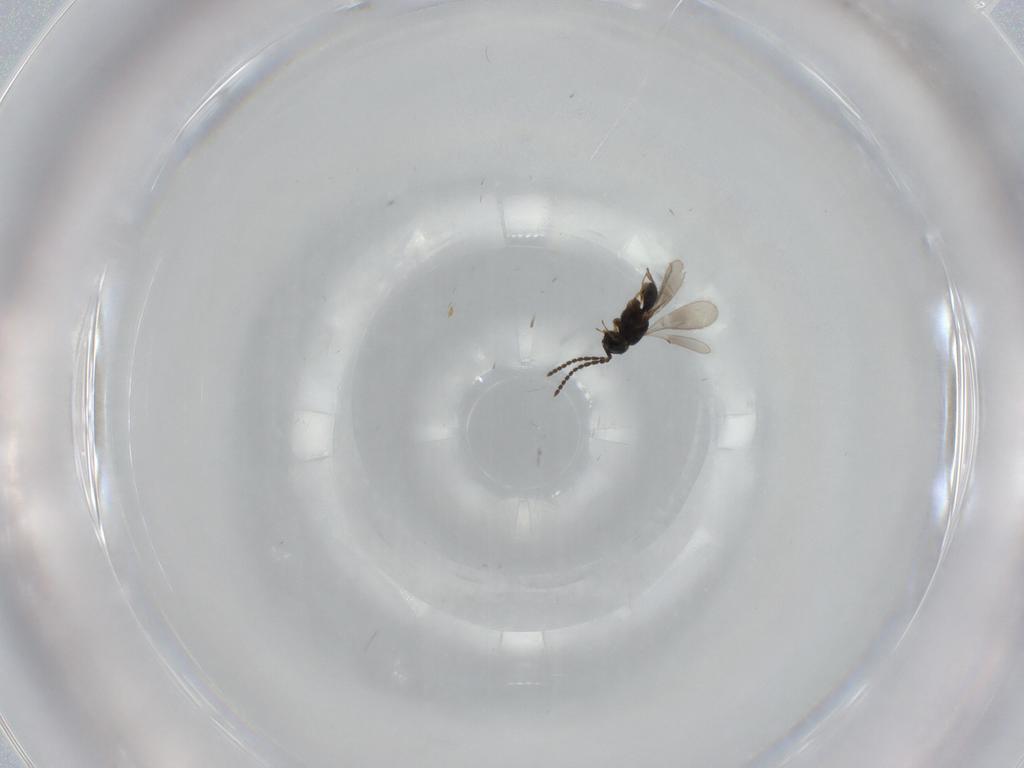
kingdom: Animalia
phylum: Arthropoda
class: Insecta
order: Hymenoptera
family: Scelionidae
